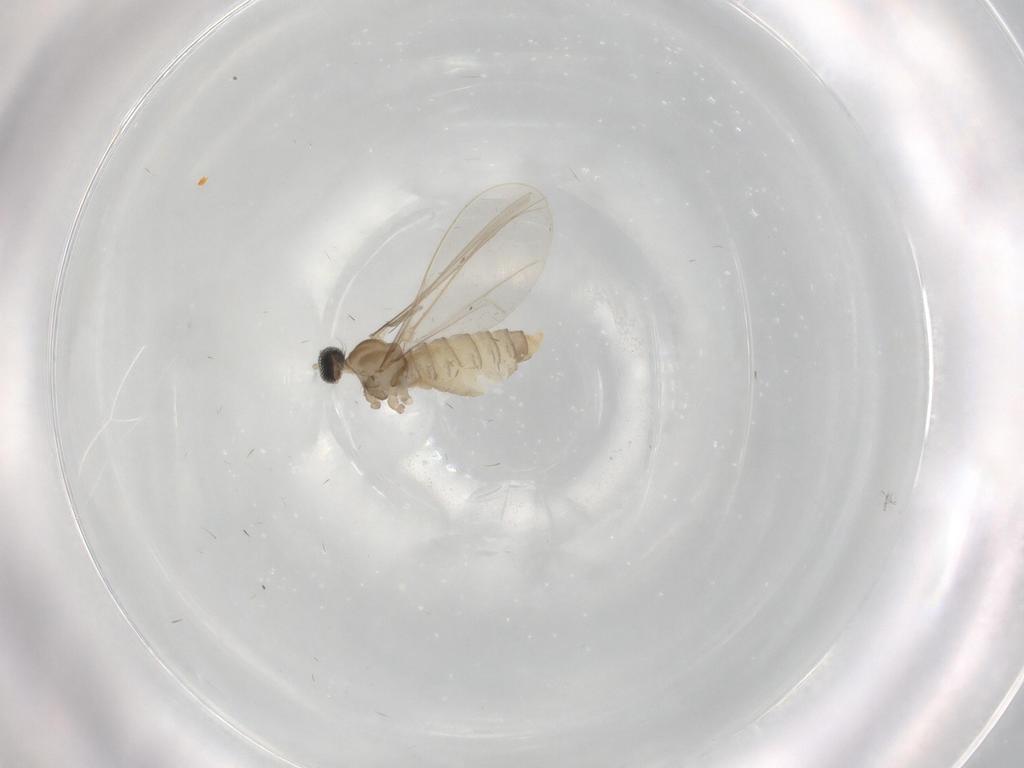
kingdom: Animalia
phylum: Arthropoda
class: Insecta
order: Diptera
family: Cecidomyiidae
